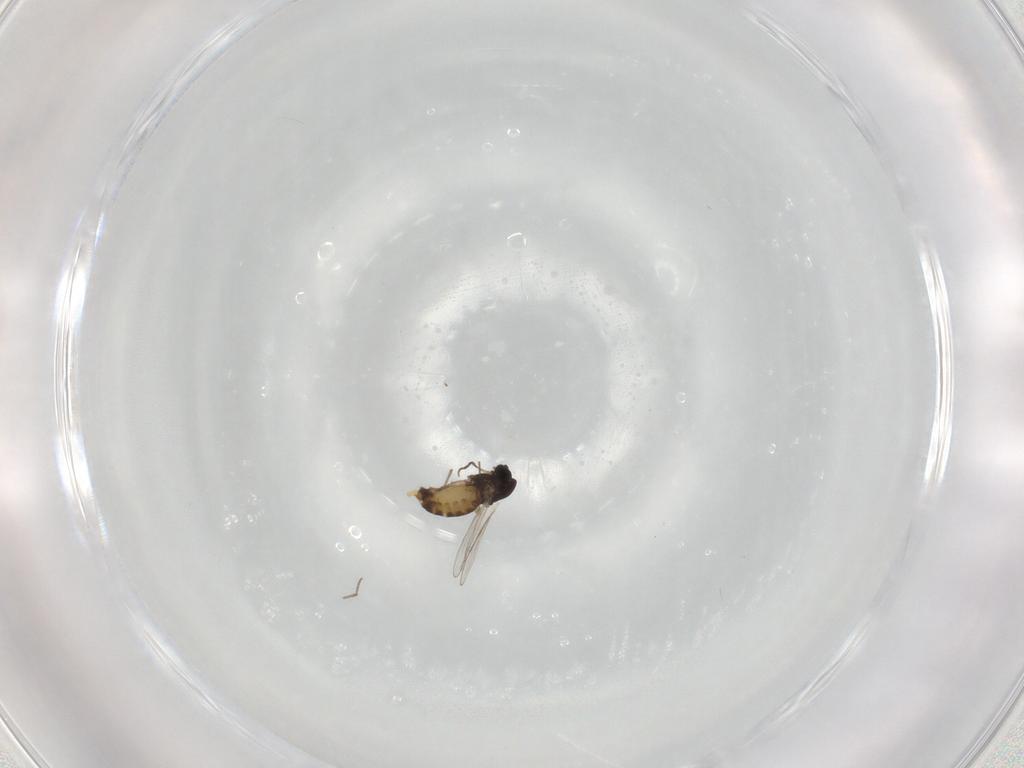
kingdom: Animalia
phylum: Arthropoda
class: Insecta
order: Diptera
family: Chironomidae
